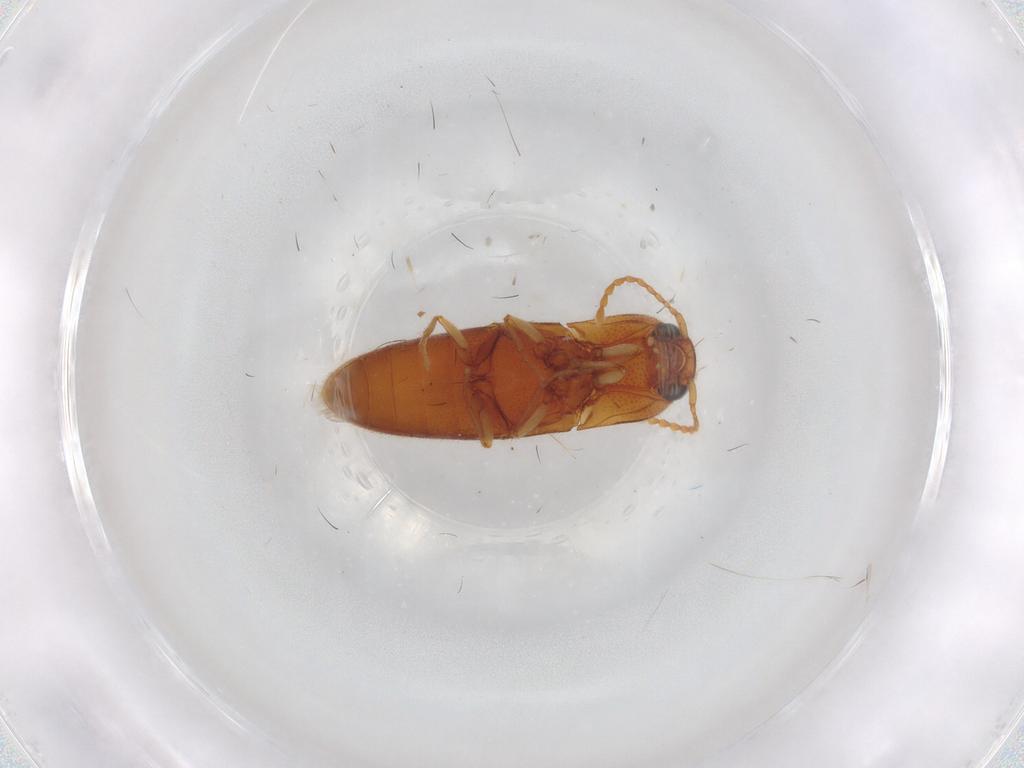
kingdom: Animalia
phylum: Arthropoda
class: Insecta
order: Coleoptera
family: Elateridae
